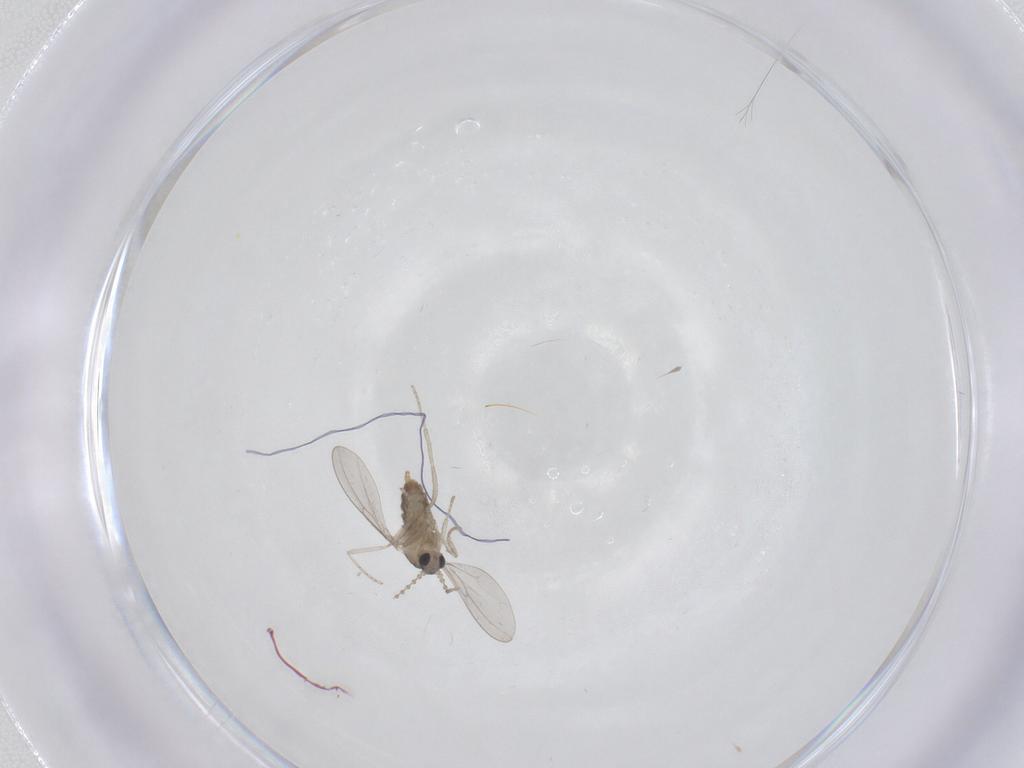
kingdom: Animalia
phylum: Arthropoda
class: Insecta
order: Diptera
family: Cecidomyiidae
